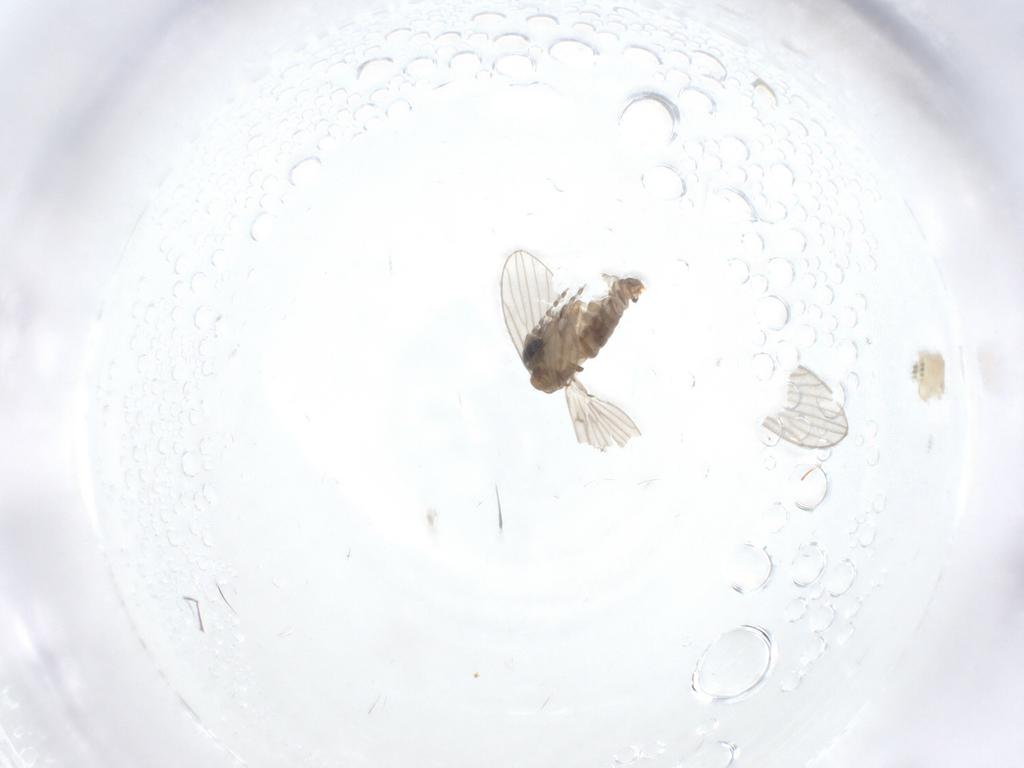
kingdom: Animalia
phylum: Arthropoda
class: Insecta
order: Diptera
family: Psychodidae
